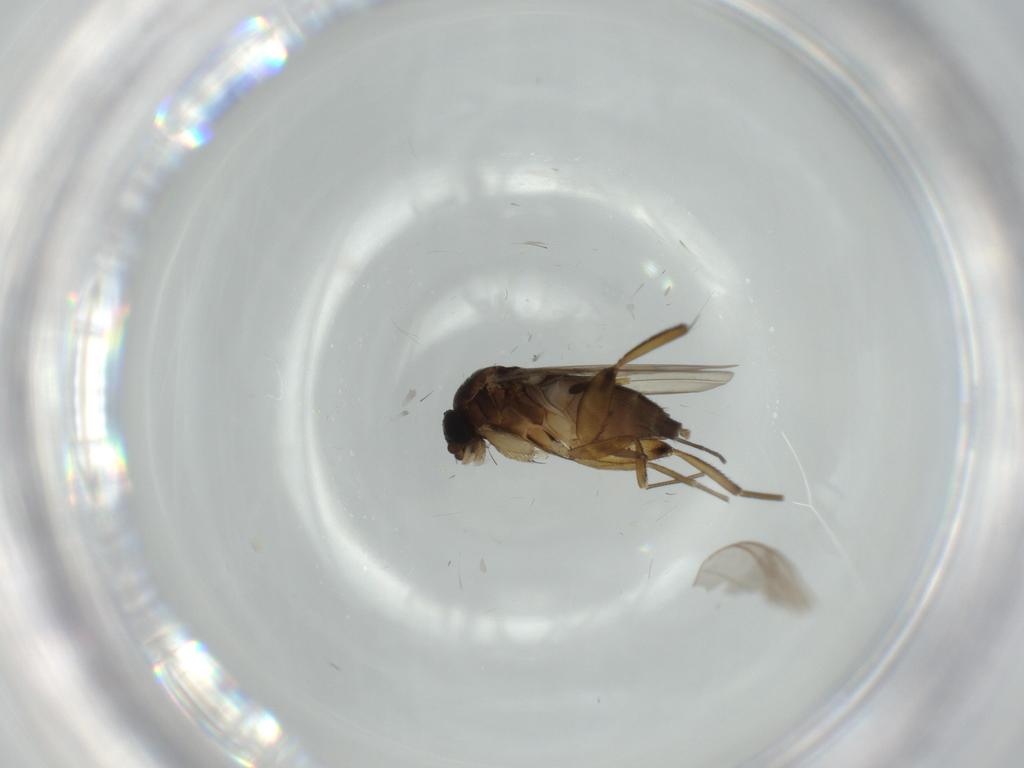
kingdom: Animalia
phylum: Arthropoda
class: Insecta
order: Diptera
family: Anthomyiidae
